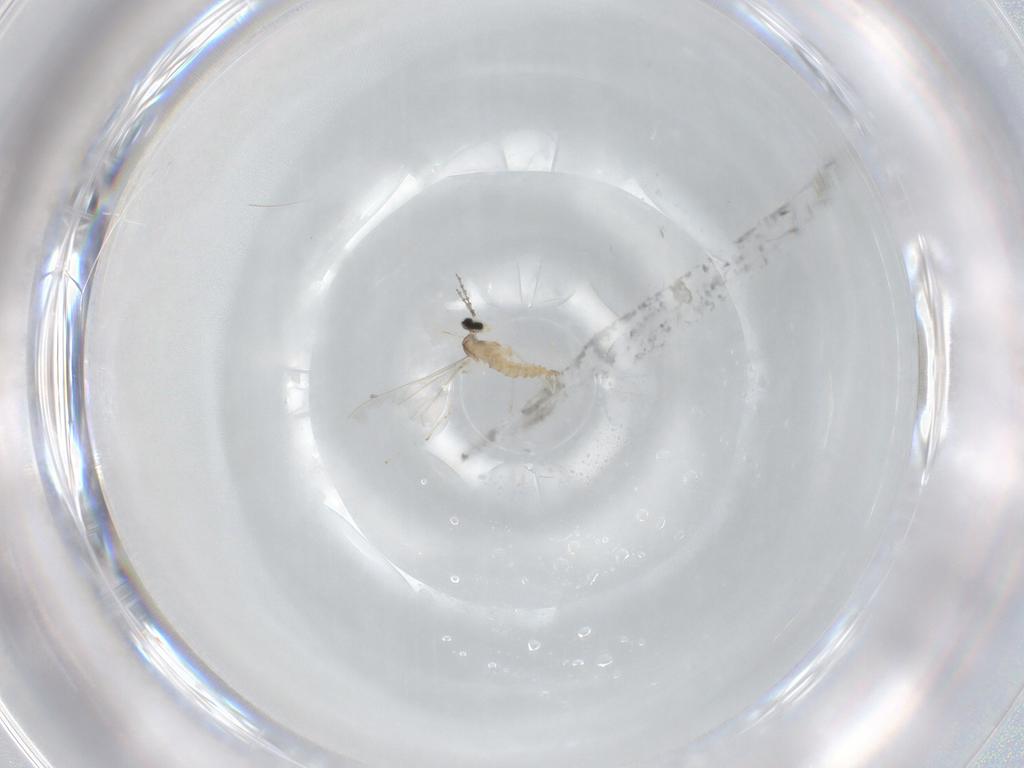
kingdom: Animalia
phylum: Arthropoda
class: Insecta
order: Diptera
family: Cecidomyiidae
